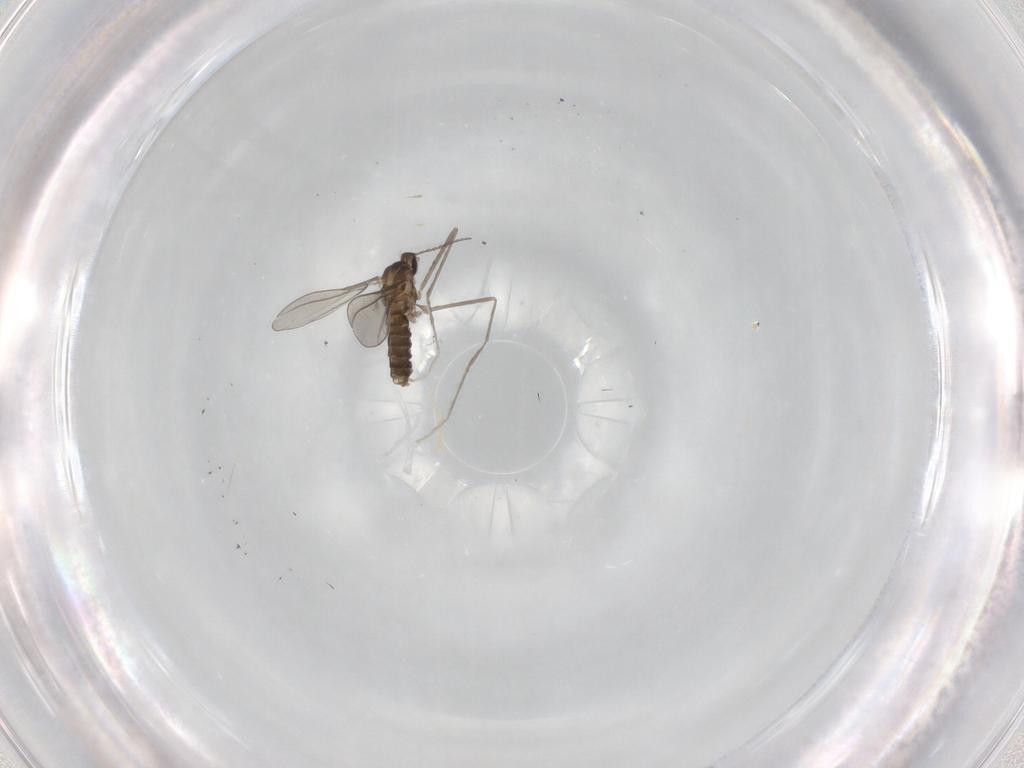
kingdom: Animalia
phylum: Arthropoda
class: Insecta
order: Diptera
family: Cecidomyiidae
